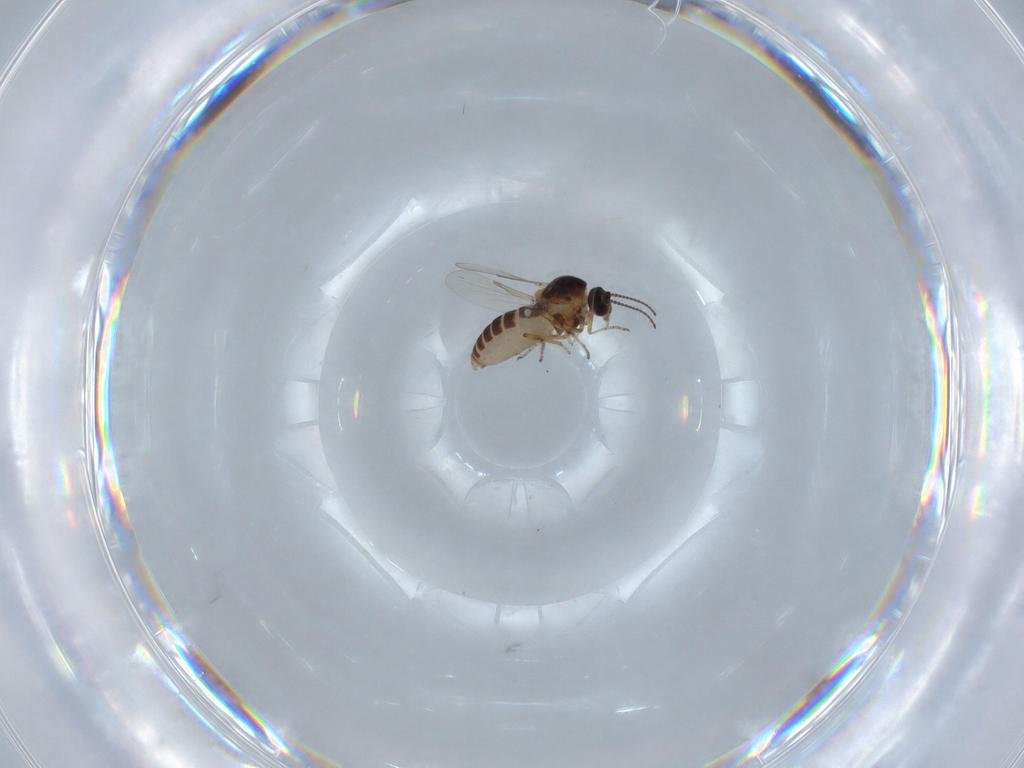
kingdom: Animalia
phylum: Arthropoda
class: Insecta
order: Diptera
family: Ceratopogonidae
